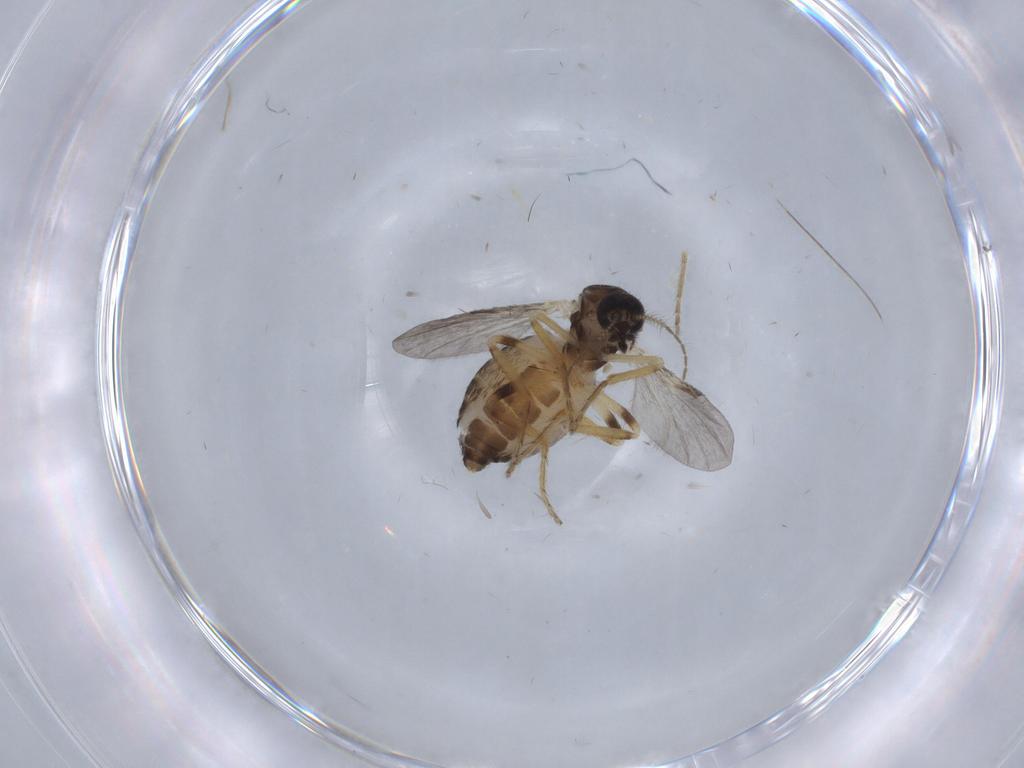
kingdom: Animalia
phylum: Arthropoda
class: Insecta
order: Diptera
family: Ceratopogonidae
